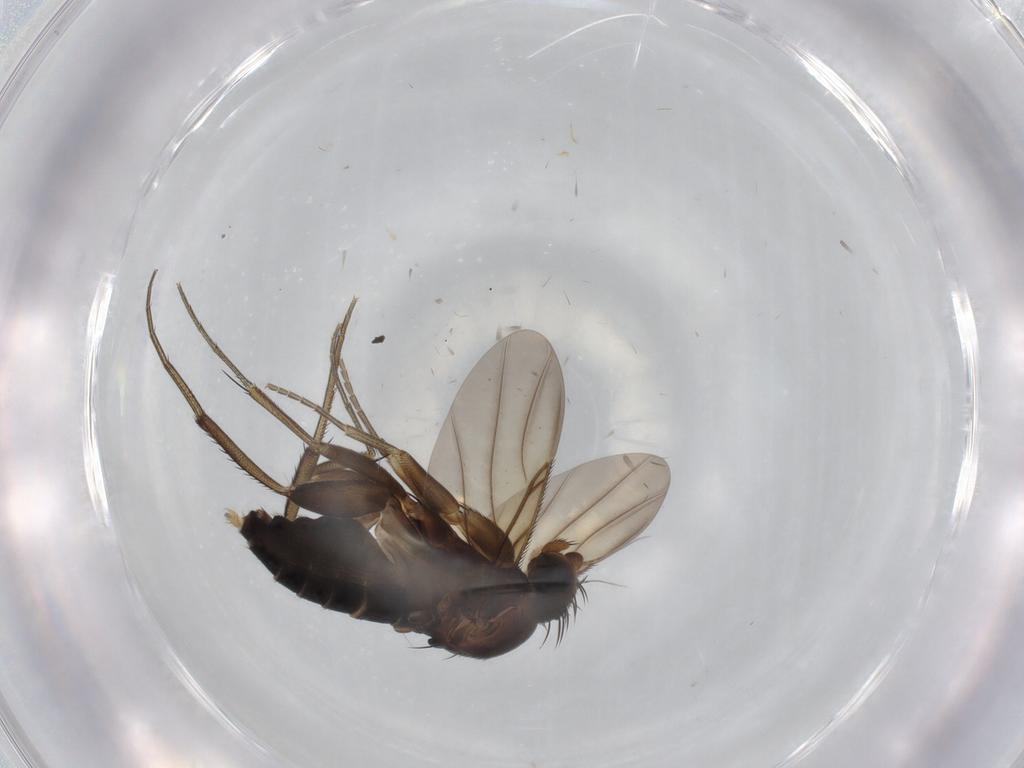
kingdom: Animalia
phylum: Arthropoda
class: Insecta
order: Diptera
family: Phoridae
